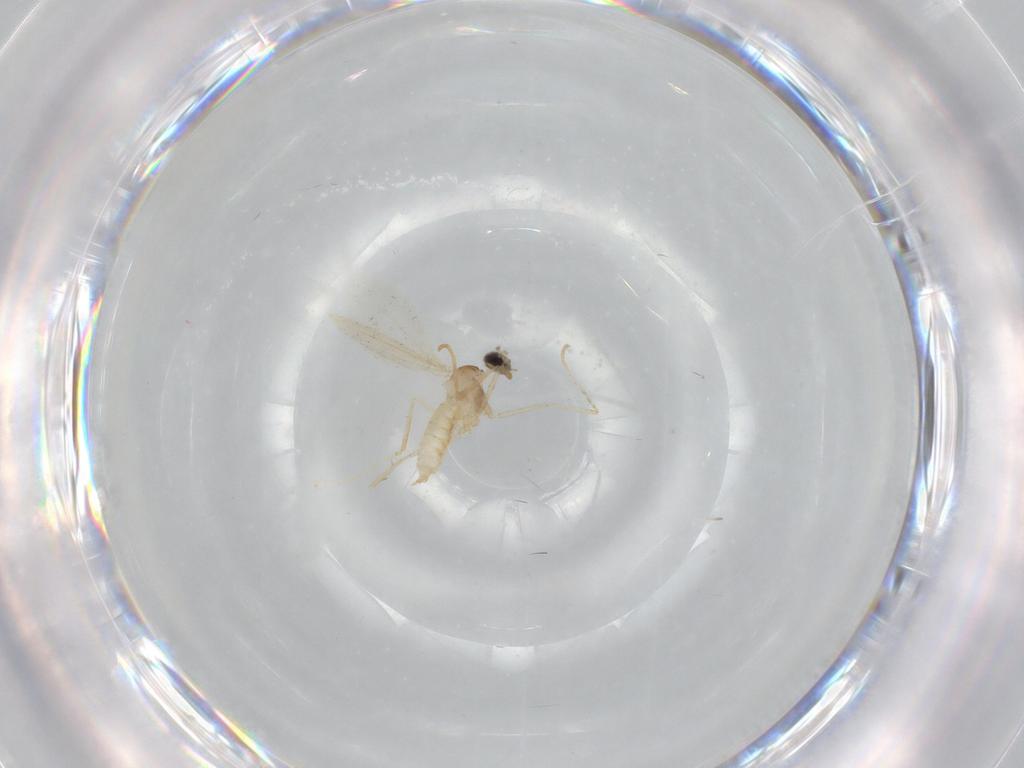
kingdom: Animalia
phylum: Arthropoda
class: Insecta
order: Diptera
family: Cecidomyiidae
